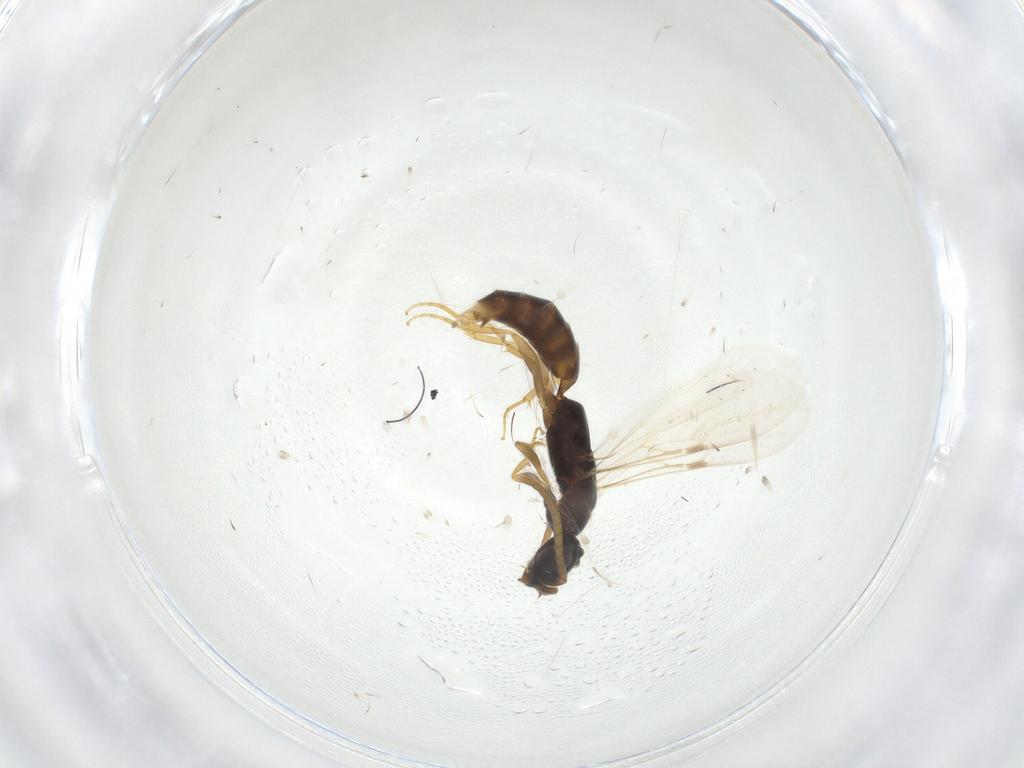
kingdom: Animalia
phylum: Arthropoda
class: Insecta
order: Hymenoptera
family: Bethylidae
